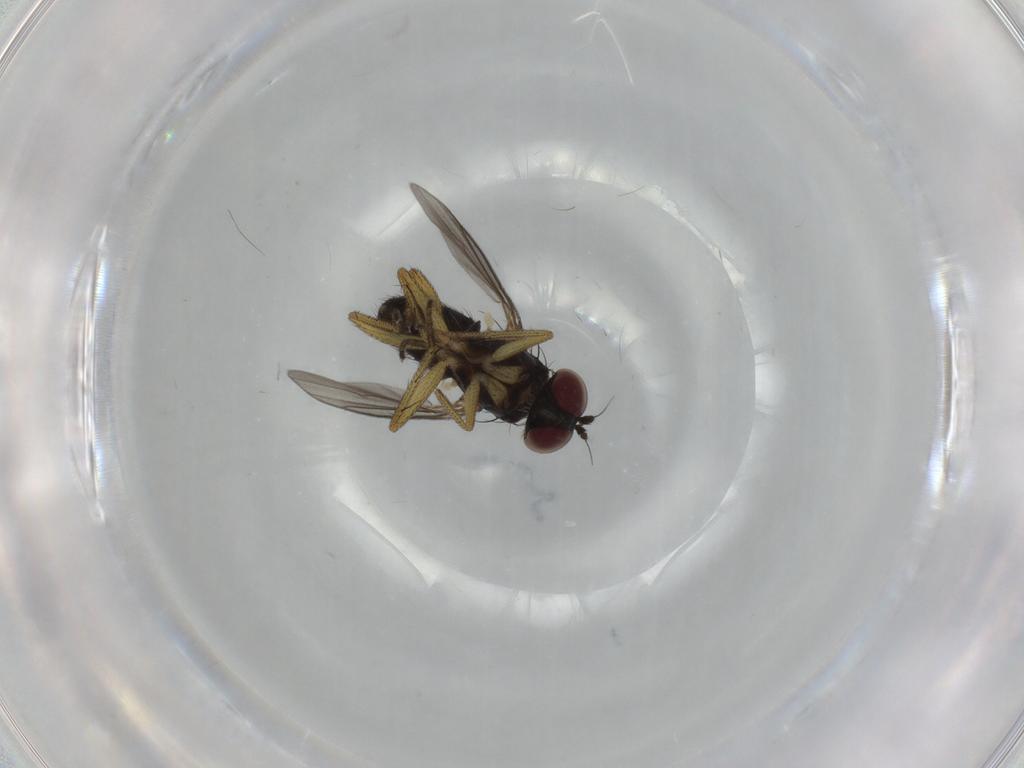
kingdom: Animalia
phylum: Arthropoda
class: Insecta
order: Diptera
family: Dolichopodidae
